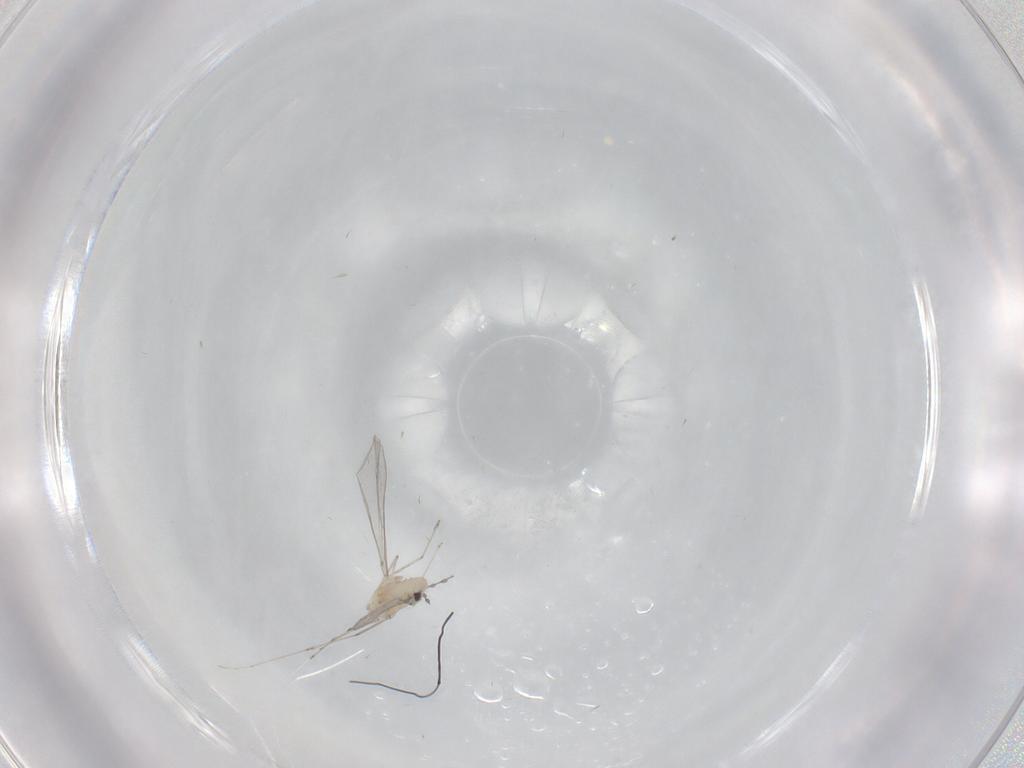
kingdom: Animalia
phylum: Arthropoda
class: Insecta
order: Diptera
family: Cecidomyiidae
